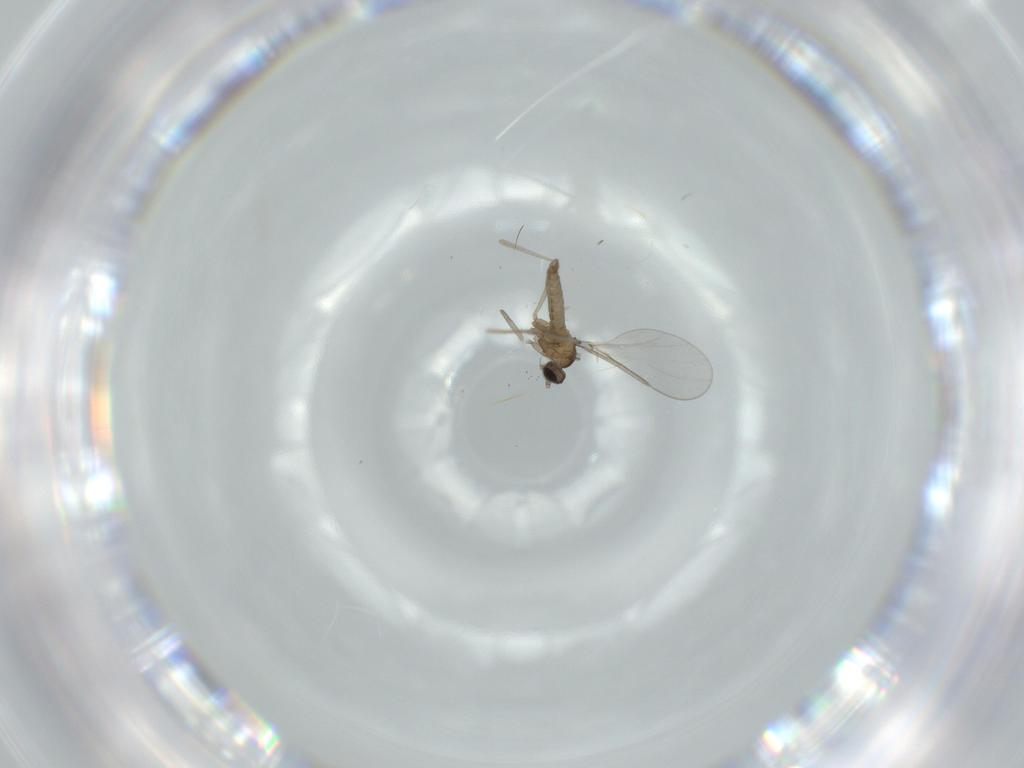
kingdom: Animalia
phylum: Arthropoda
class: Insecta
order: Diptera
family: Cecidomyiidae
